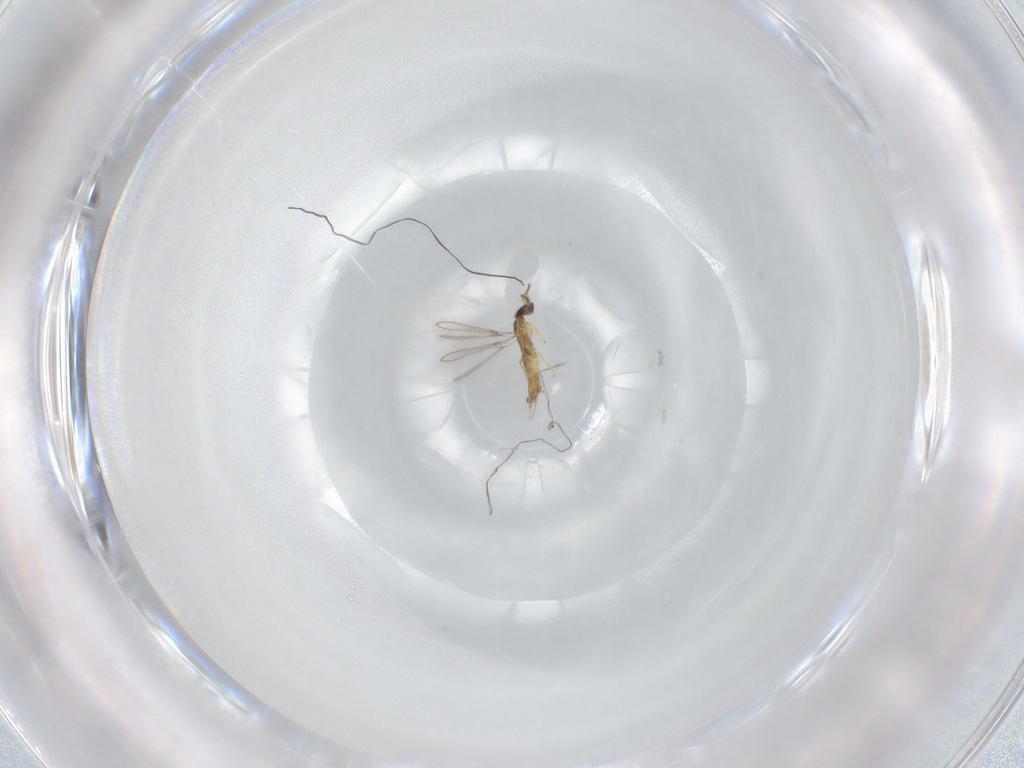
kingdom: Animalia
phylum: Arthropoda
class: Insecta
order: Hymenoptera
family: Mymaridae
